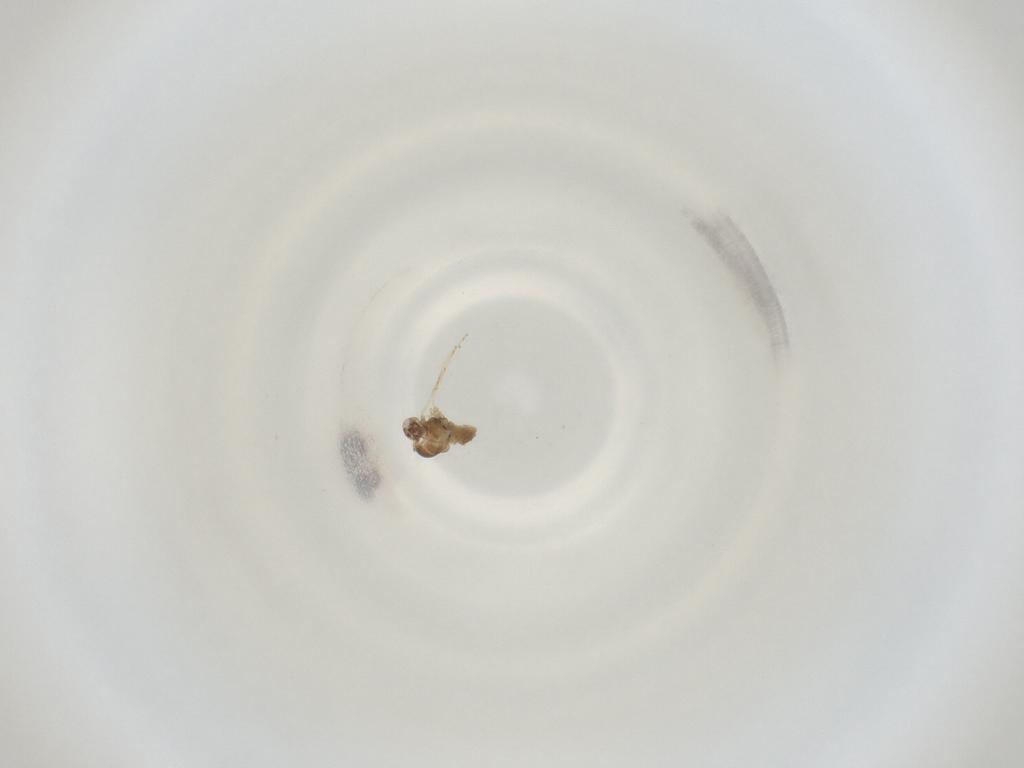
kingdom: Animalia
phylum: Arthropoda
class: Insecta
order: Diptera
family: Cecidomyiidae
